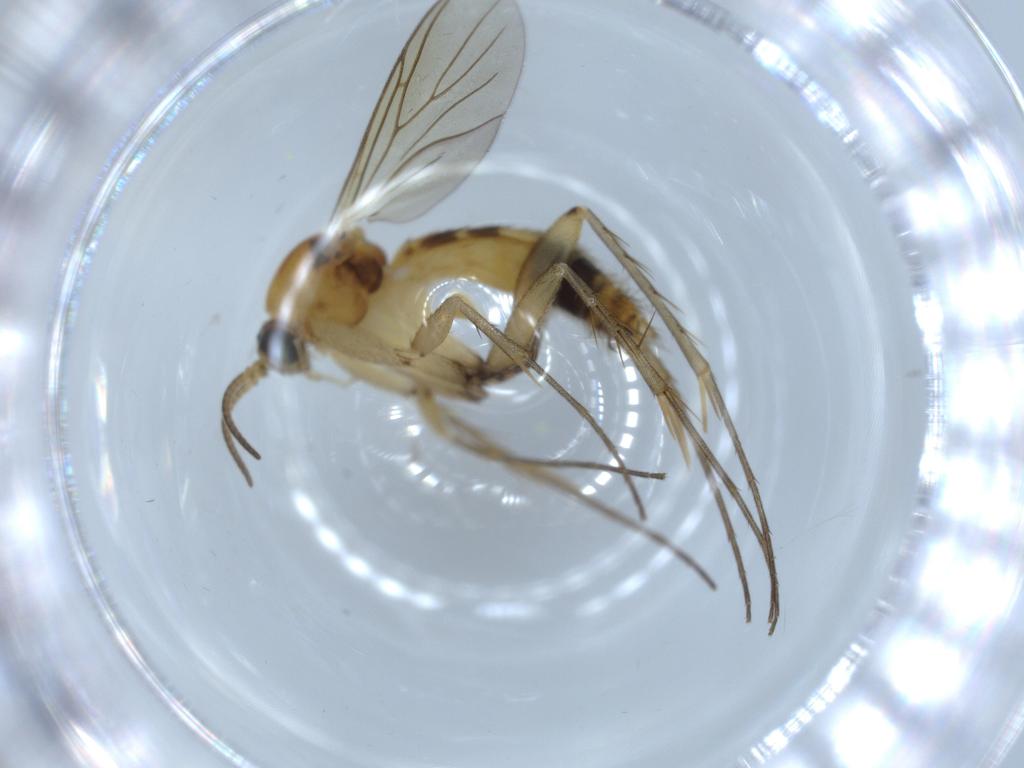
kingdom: Animalia
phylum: Arthropoda
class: Insecta
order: Diptera
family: Mycetophilidae
